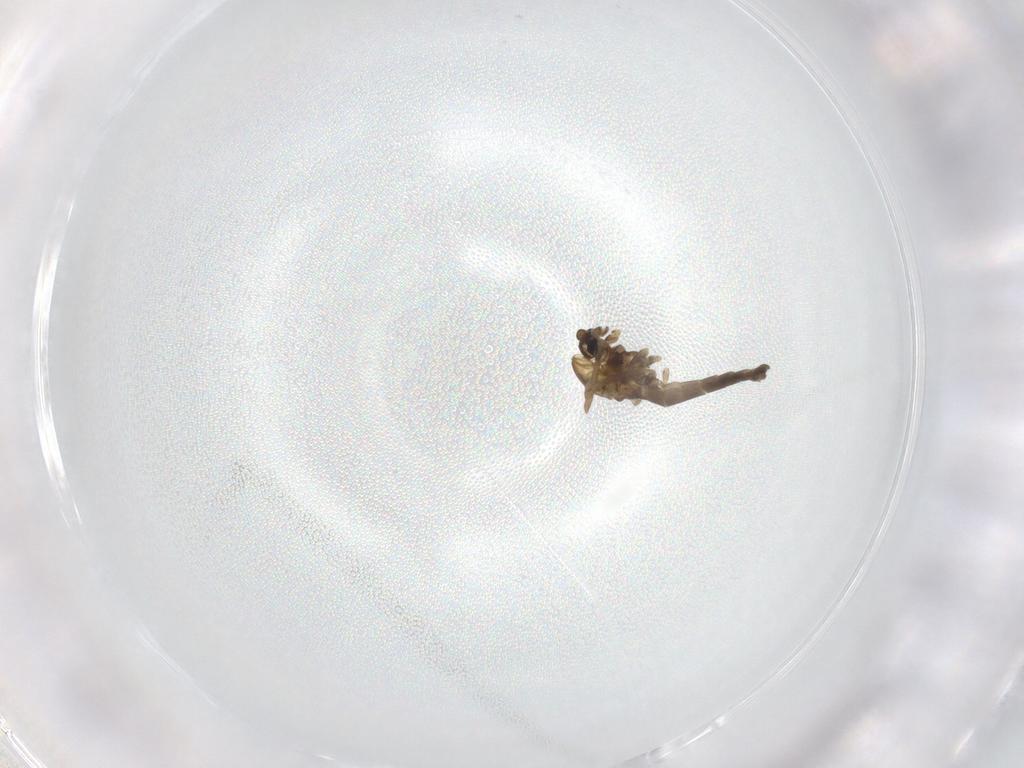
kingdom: Animalia
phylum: Arthropoda
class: Insecta
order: Diptera
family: Chironomidae
